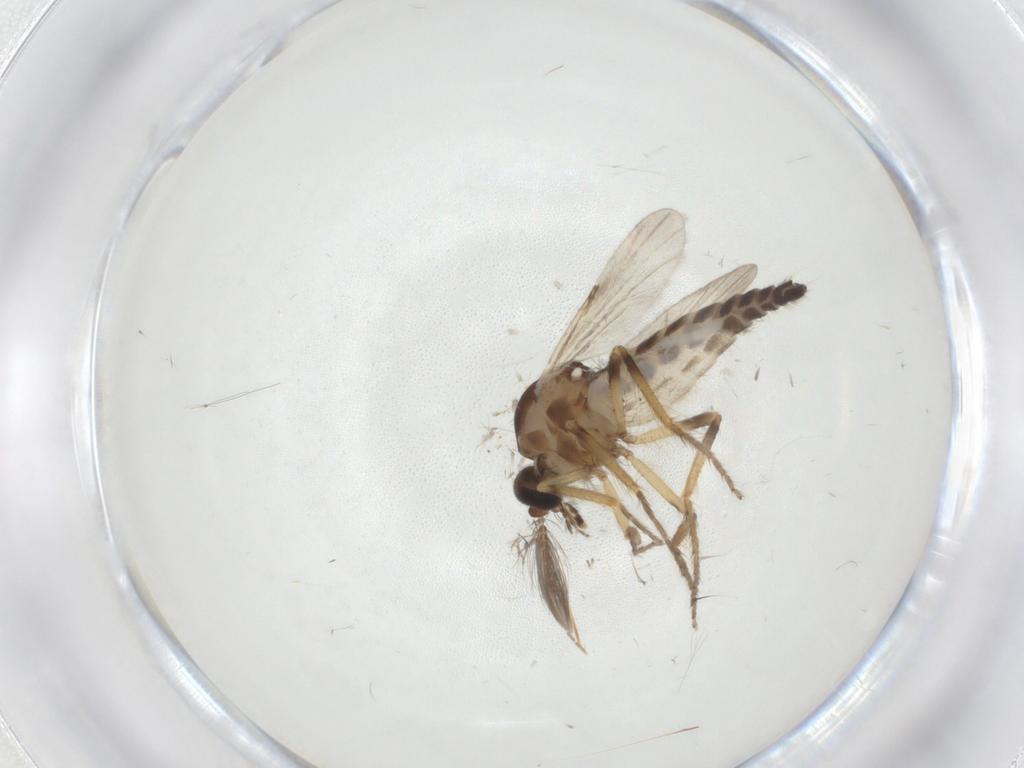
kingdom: Animalia
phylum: Arthropoda
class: Insecta
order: Diptera
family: Ceratopogonidae
